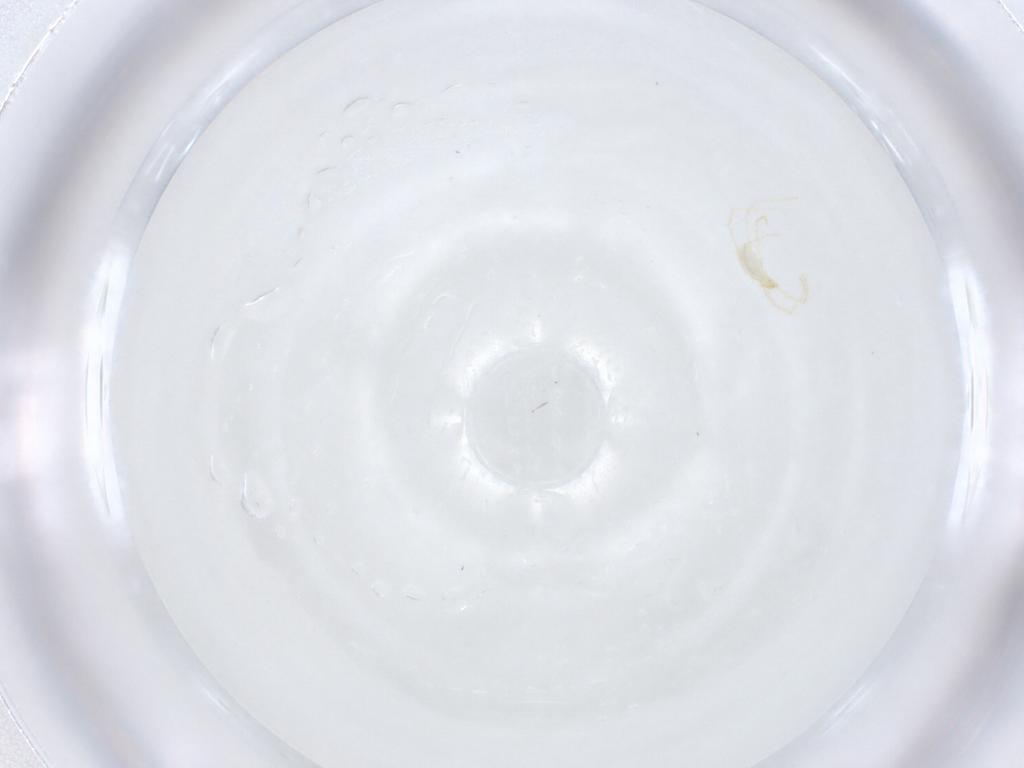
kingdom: Animalia
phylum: Arthropoda
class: Arachnida
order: Trombidiformes
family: Erythraeidae
